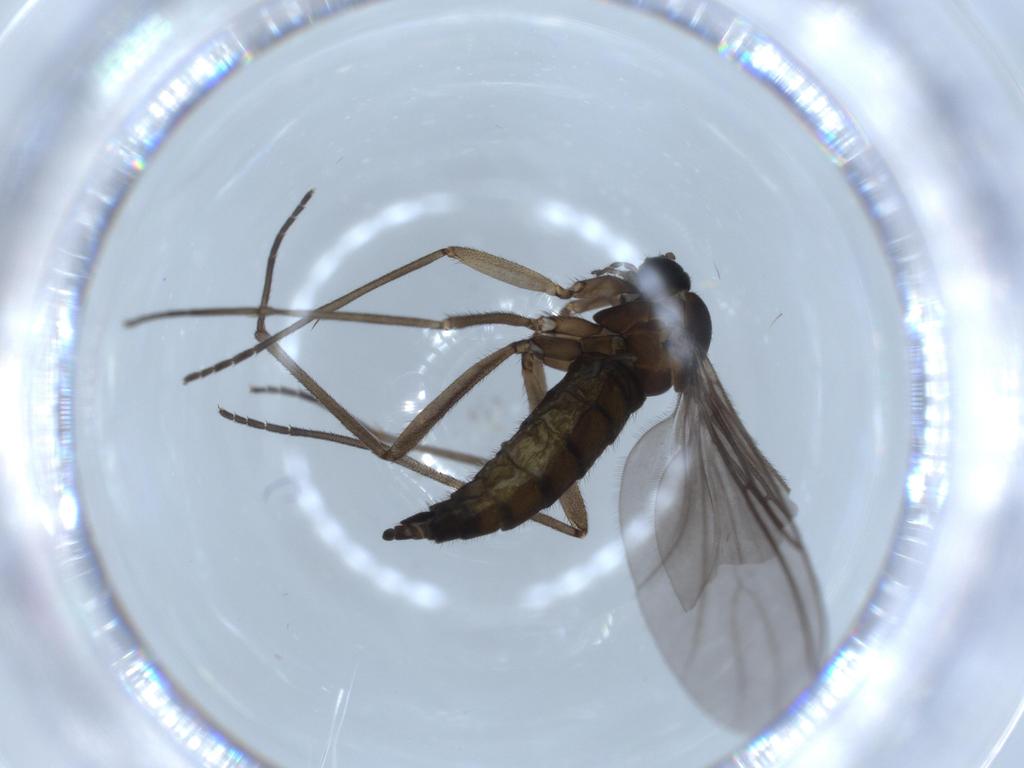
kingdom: Animalia
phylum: Arthropoda
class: Insecta
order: Diptera
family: Sciaridae
